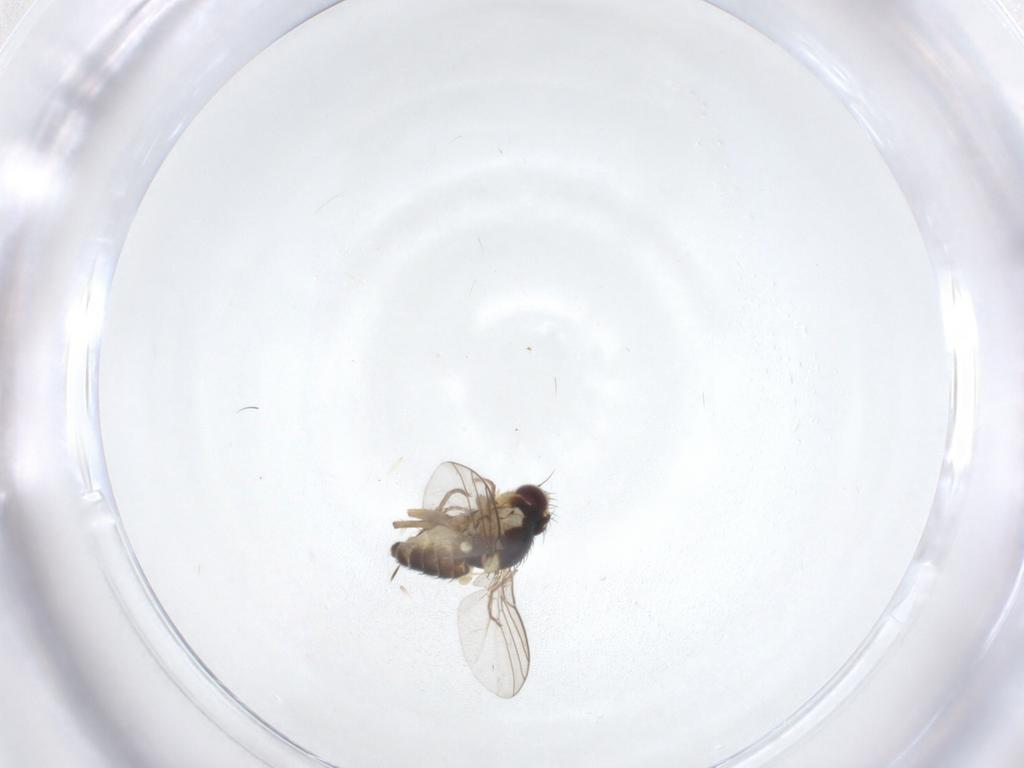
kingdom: Animalia
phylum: Arthropoda
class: Insecta
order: Diptera
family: Agromyzidae
